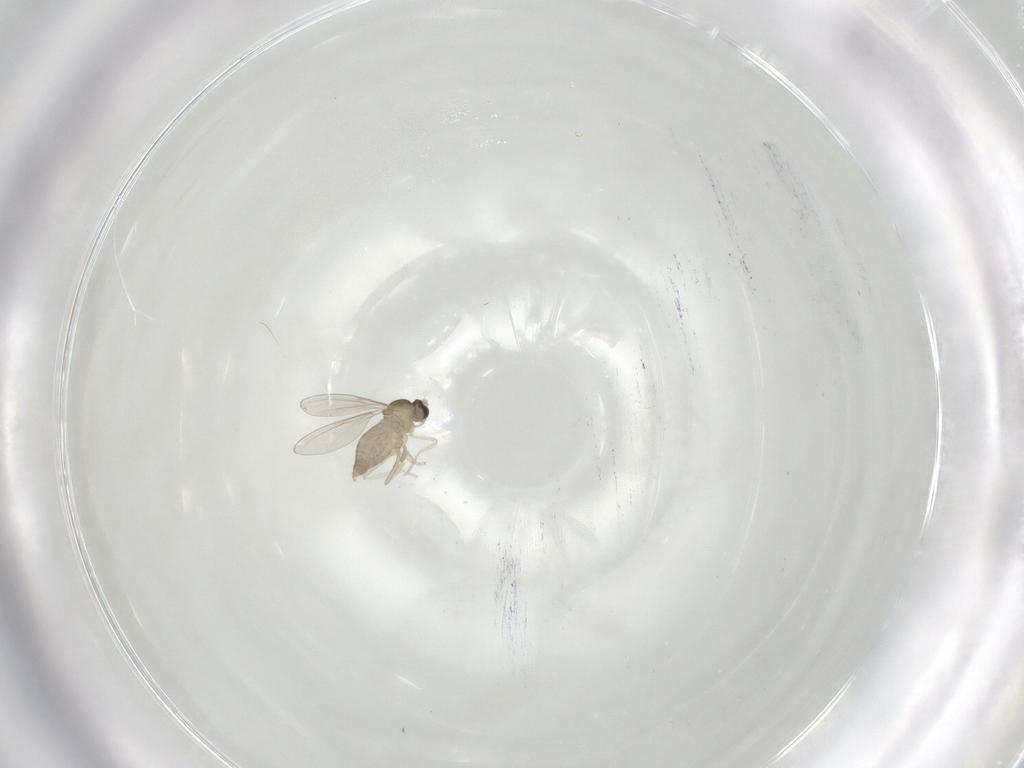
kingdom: Animalia
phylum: Arthropoda
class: Insecta
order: Diptera
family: Cecidomyiidae
